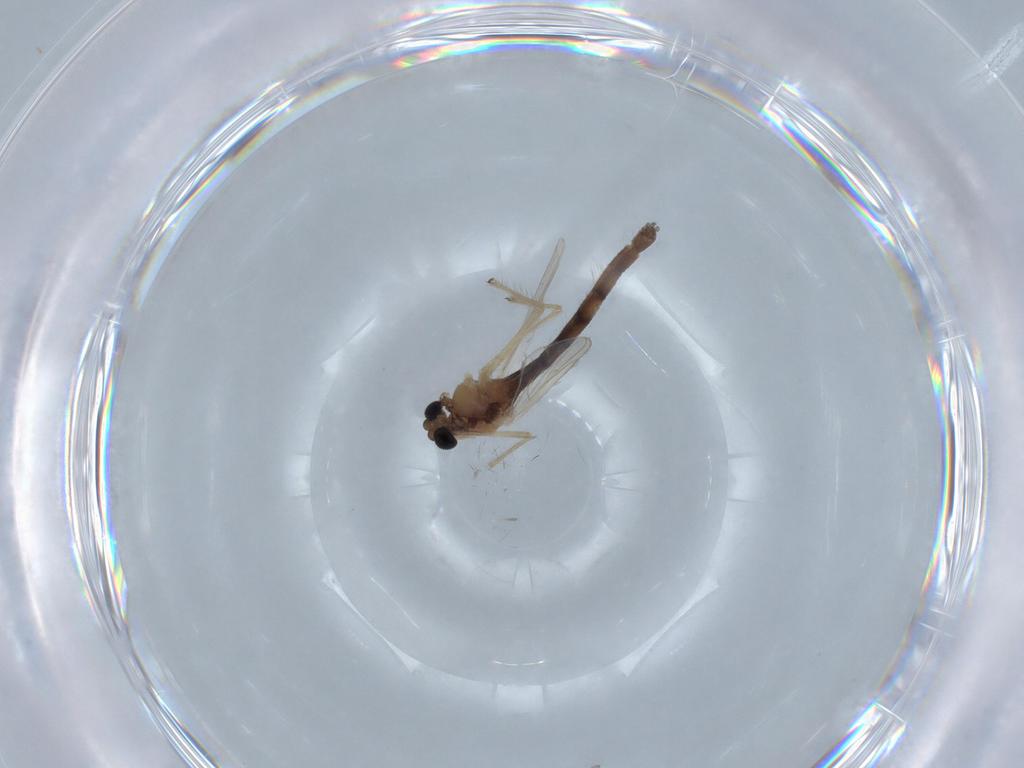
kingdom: Animalia
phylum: Arthropoda
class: Insecta
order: Diptera
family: Chironomidae
